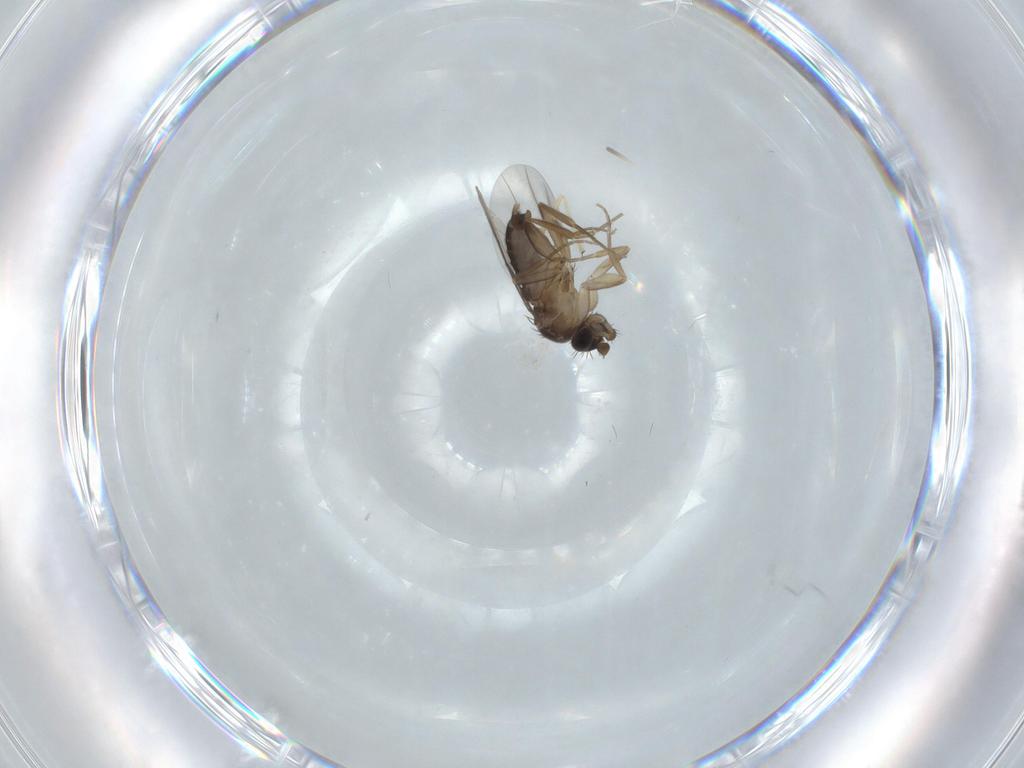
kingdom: Animalia
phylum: Arthropoda
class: Insecta
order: Diptera
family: Phoridae
